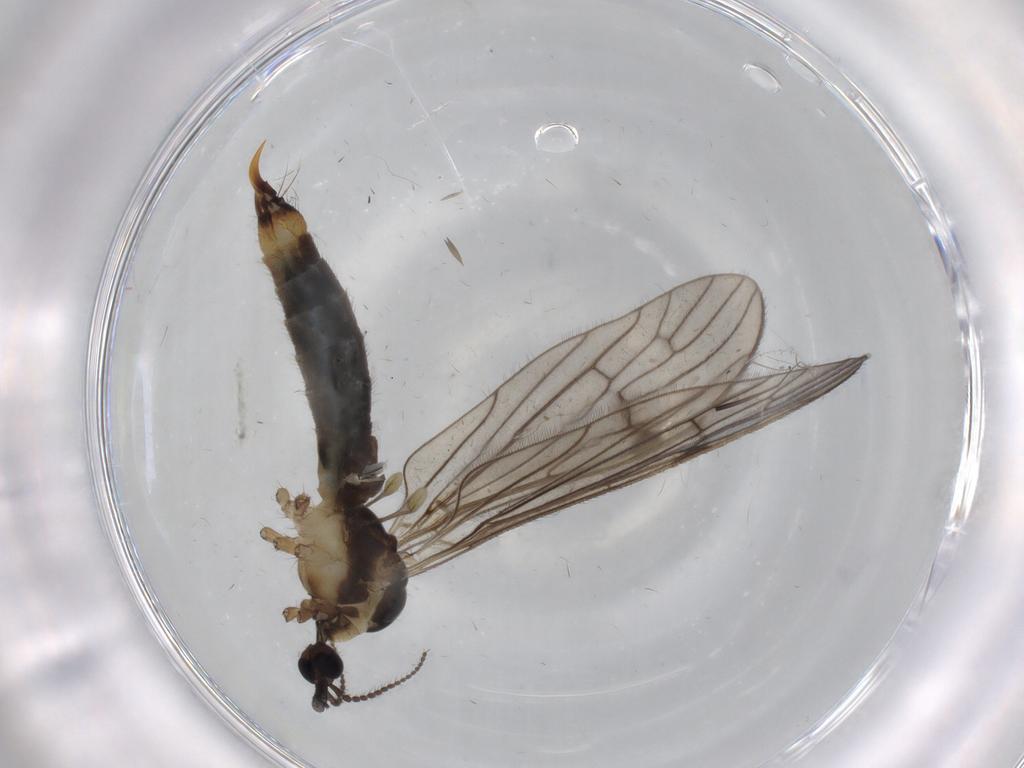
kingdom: Animalia
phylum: Arthropoda
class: Insecta
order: Diptera
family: Limoniidae
